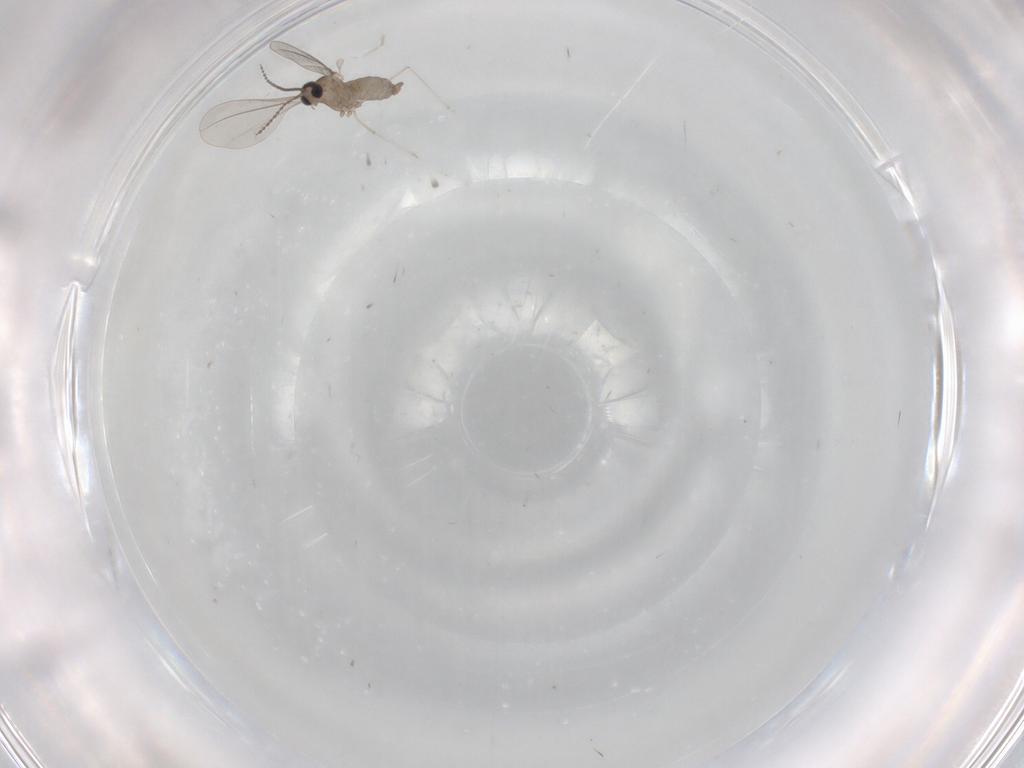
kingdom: Animalia
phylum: Arthropoda
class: Insecta
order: Diptera
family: Cecidomyiidae
